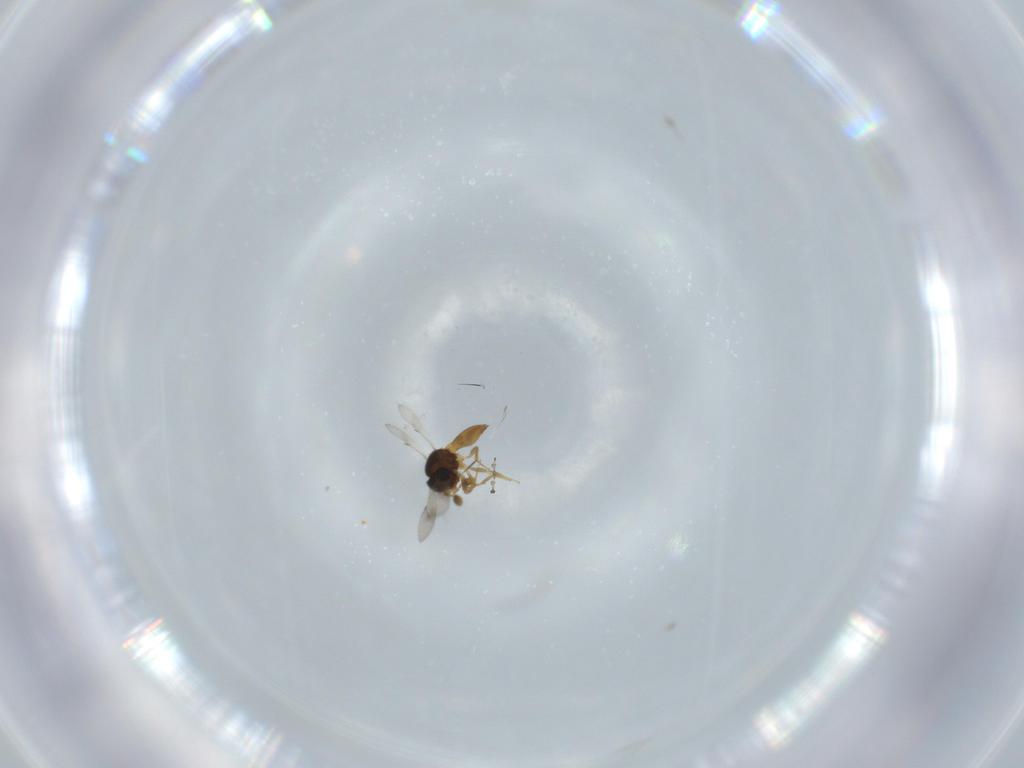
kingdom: Animalia
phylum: Arthropoda
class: Insecta
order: Hymenoptera
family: Scelionidae
